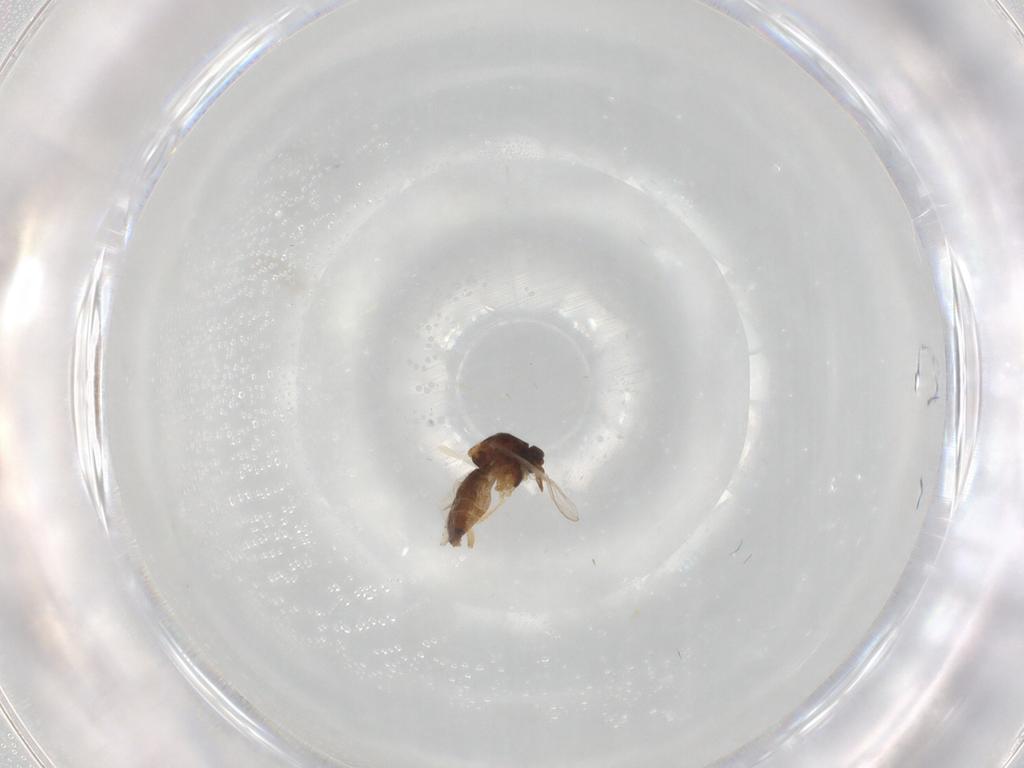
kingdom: Animalia
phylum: Arthropoda
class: Insecta
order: Diptera
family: Ceratopogonidae
